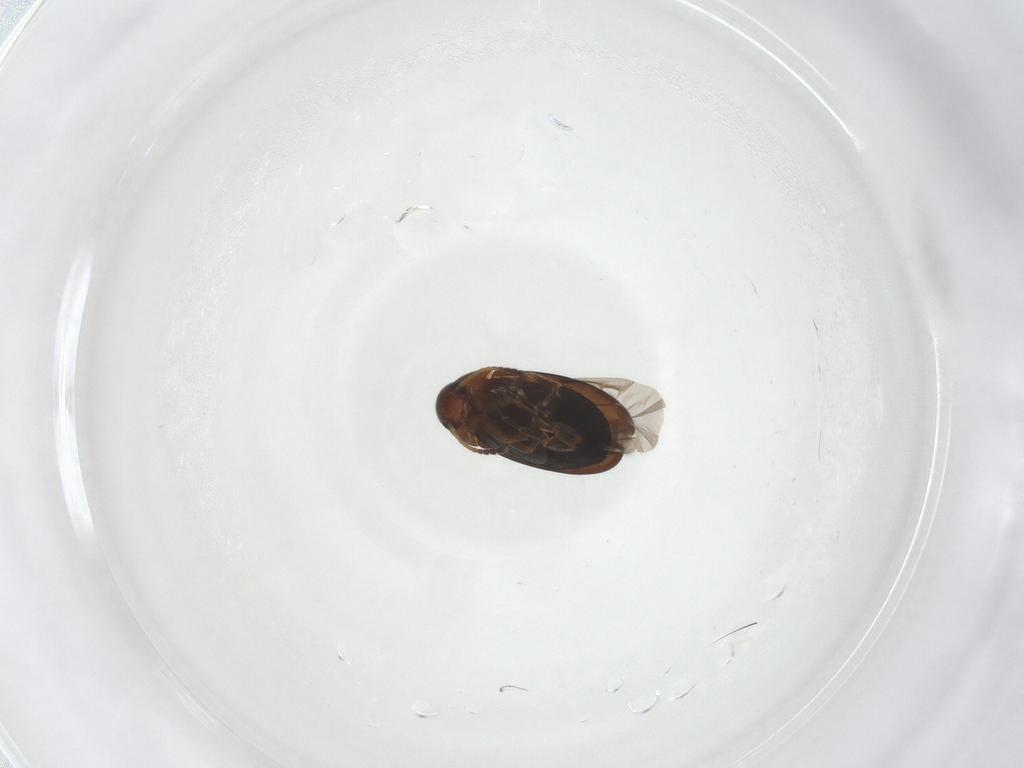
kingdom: Animalia
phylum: Arthropoda
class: Insecta
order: Coleoptera
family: Scraptiidae
